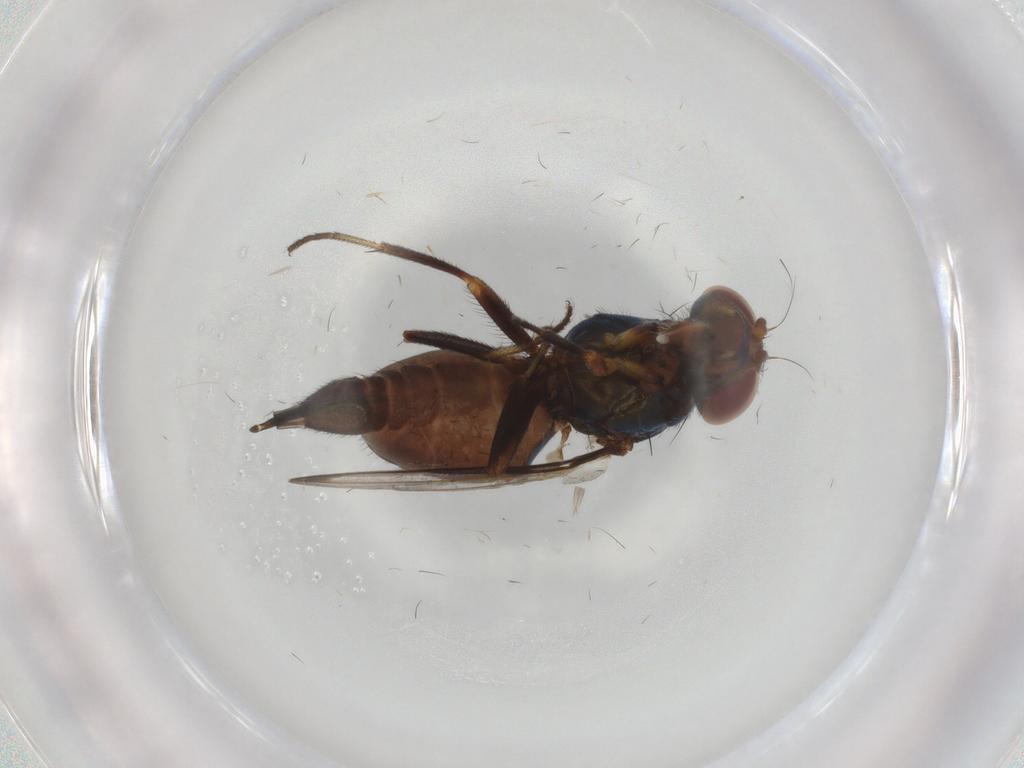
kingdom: Animalia
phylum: Arthropoda
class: Insecta
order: Diptera
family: Ulidiidae
